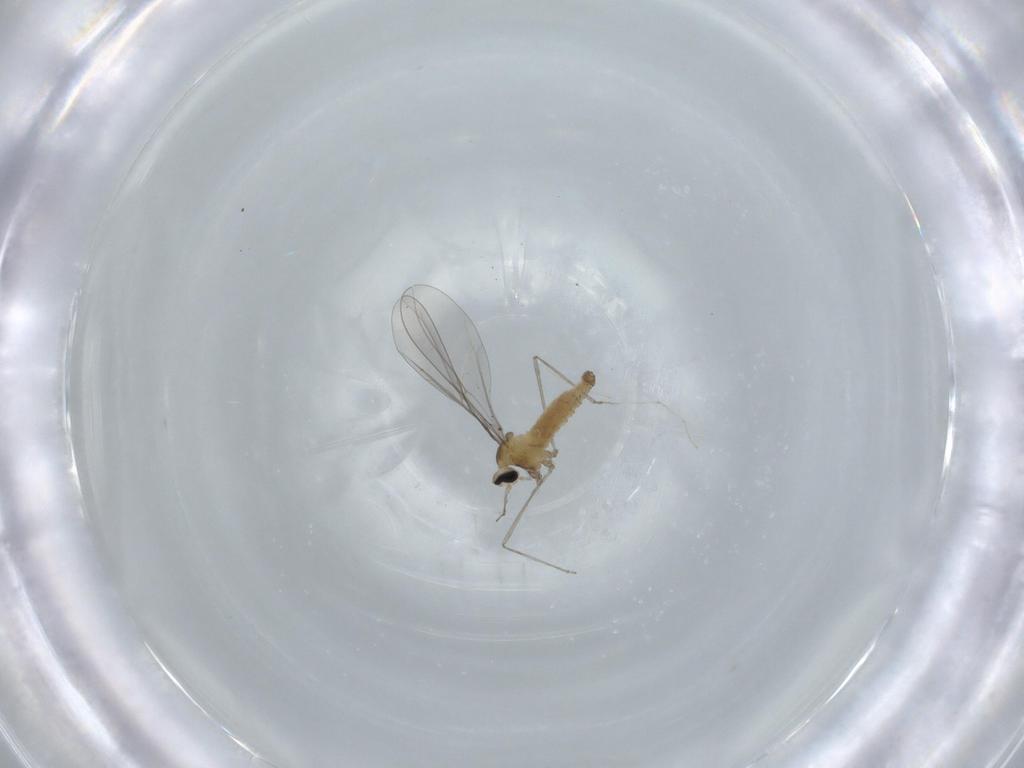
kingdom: Animalia
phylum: Arthropoda
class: Insecta
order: Diptera
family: Cecidomyiidae
